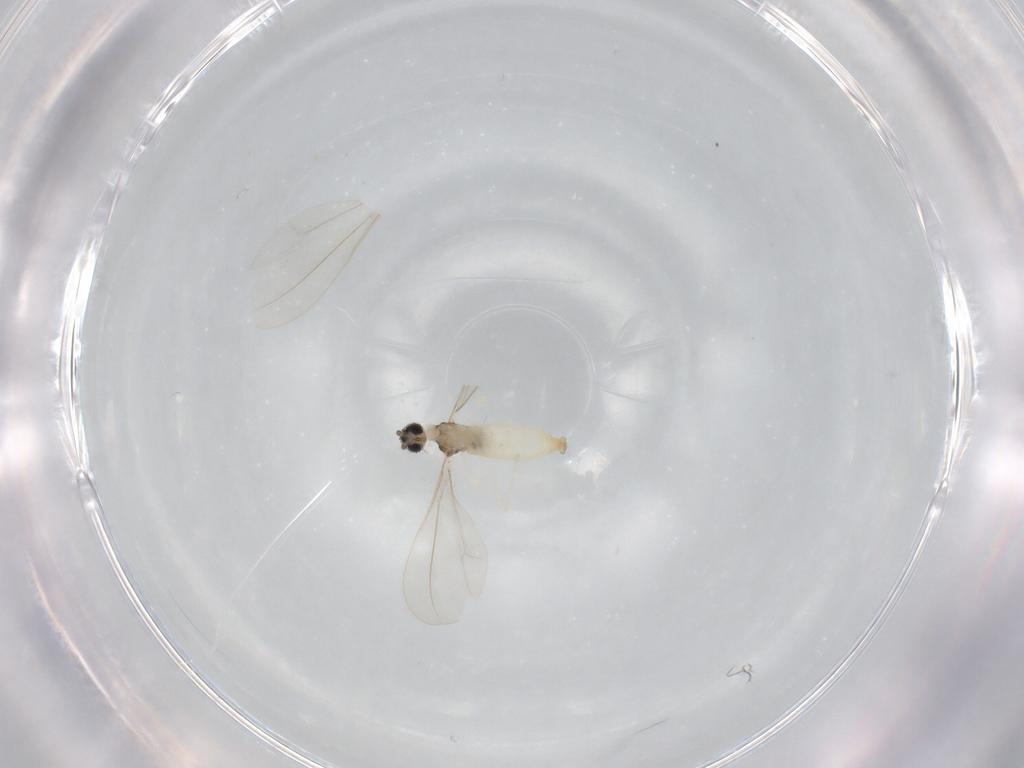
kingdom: Animalia
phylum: Arthropoda
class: Insecta
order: Diptera
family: Cecidomyiidae
